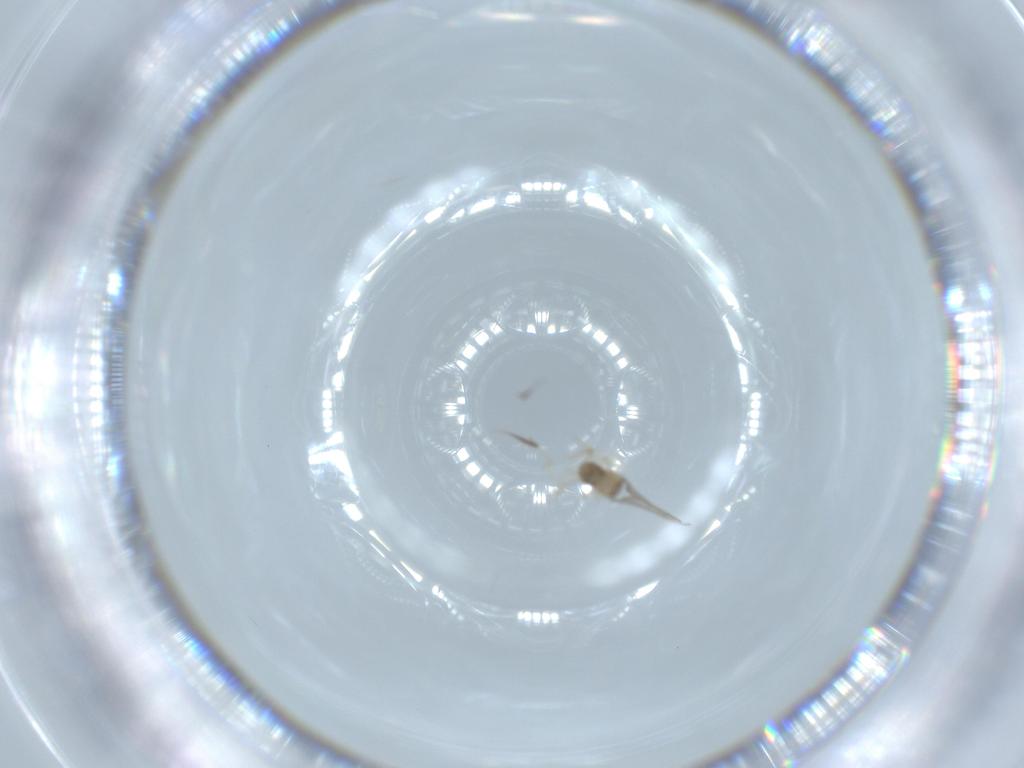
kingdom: Animalia
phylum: Arthropoda
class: Insecta
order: Diptera
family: Cecidomyiidae
